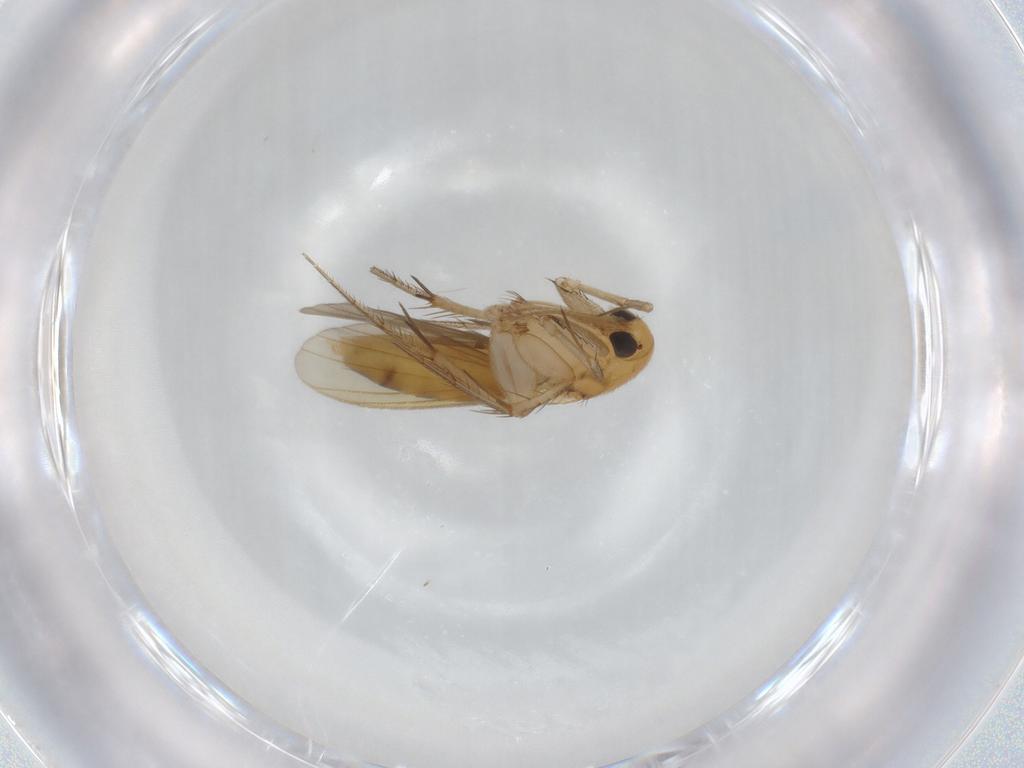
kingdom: Animalia
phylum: Arthropoda
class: Insecta
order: Diptera
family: Mycetophilidae
